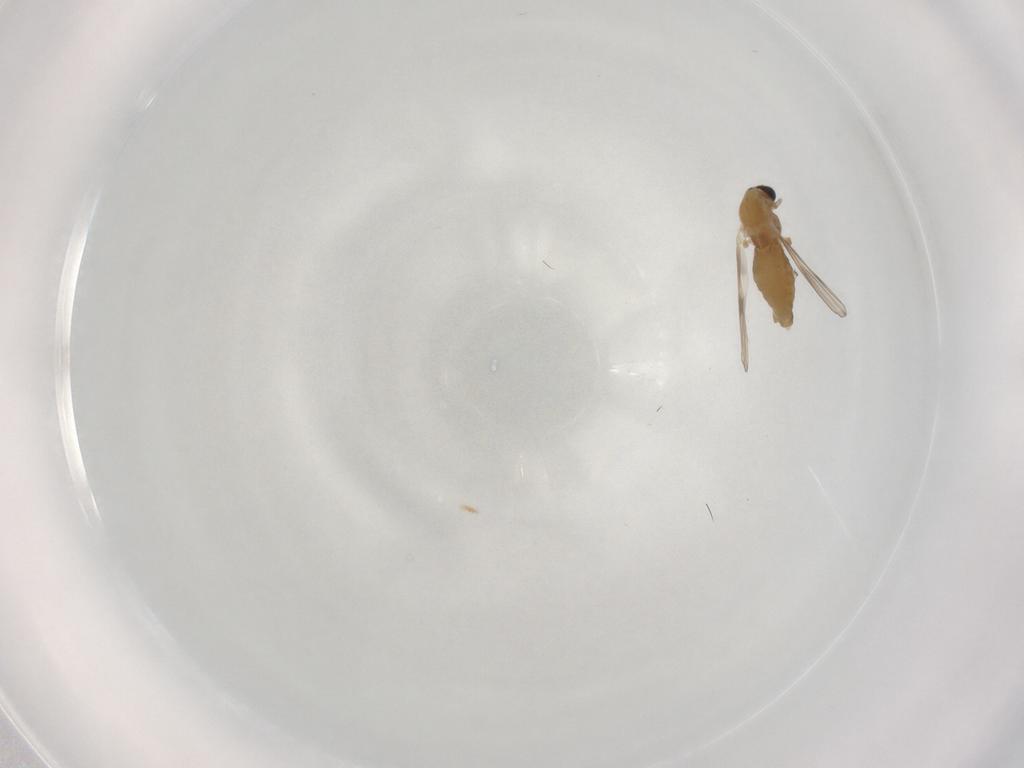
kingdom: Animalia
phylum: Arthropoda
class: Insecta
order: Diptera
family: Chironomidae
